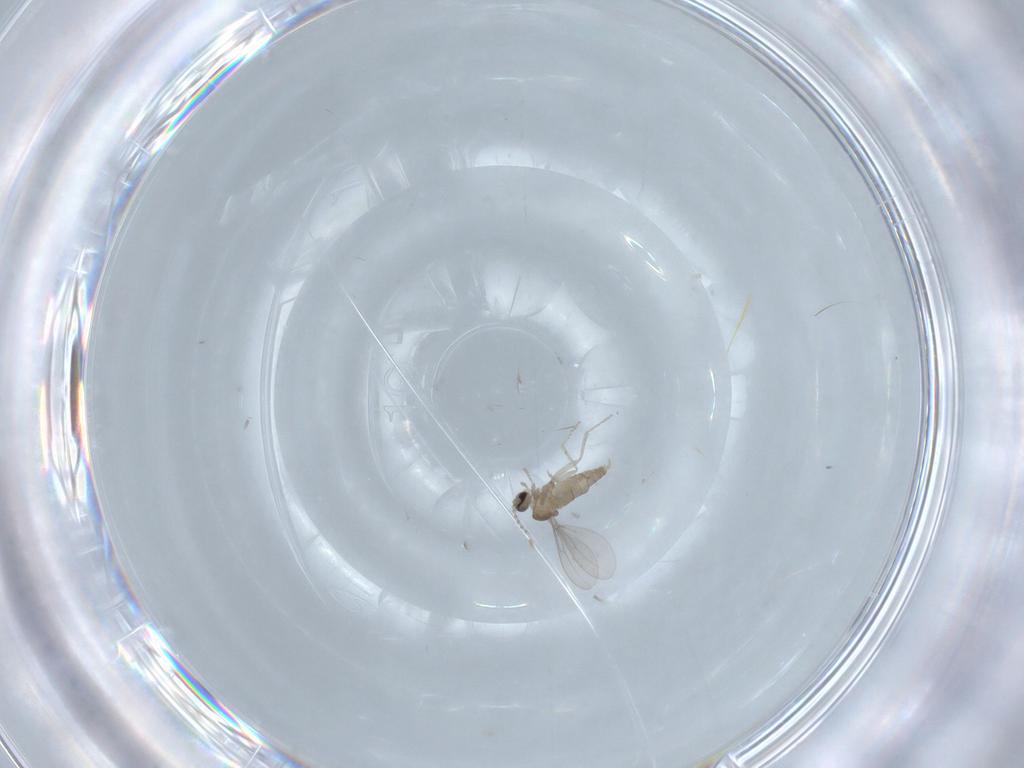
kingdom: Animalia
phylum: Arthropoda
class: Insecta
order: Diptera
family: Cecidomyiidae
